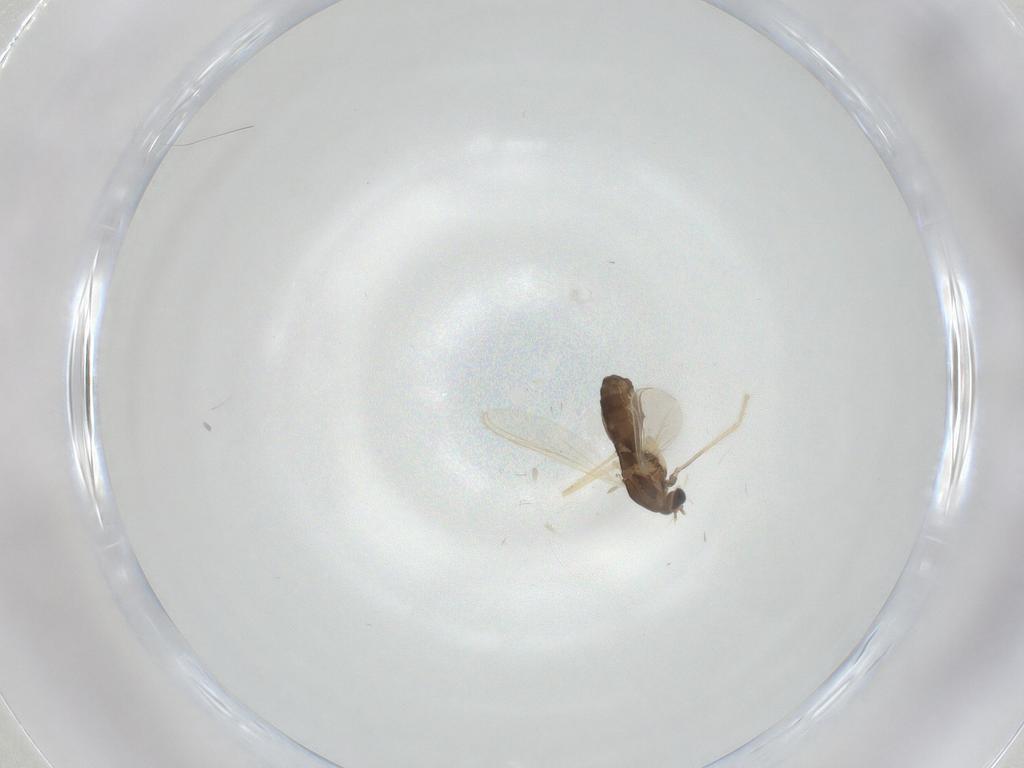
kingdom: Animalia
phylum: Arthropoda
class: Insecta
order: Diptera
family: Chironomidae
